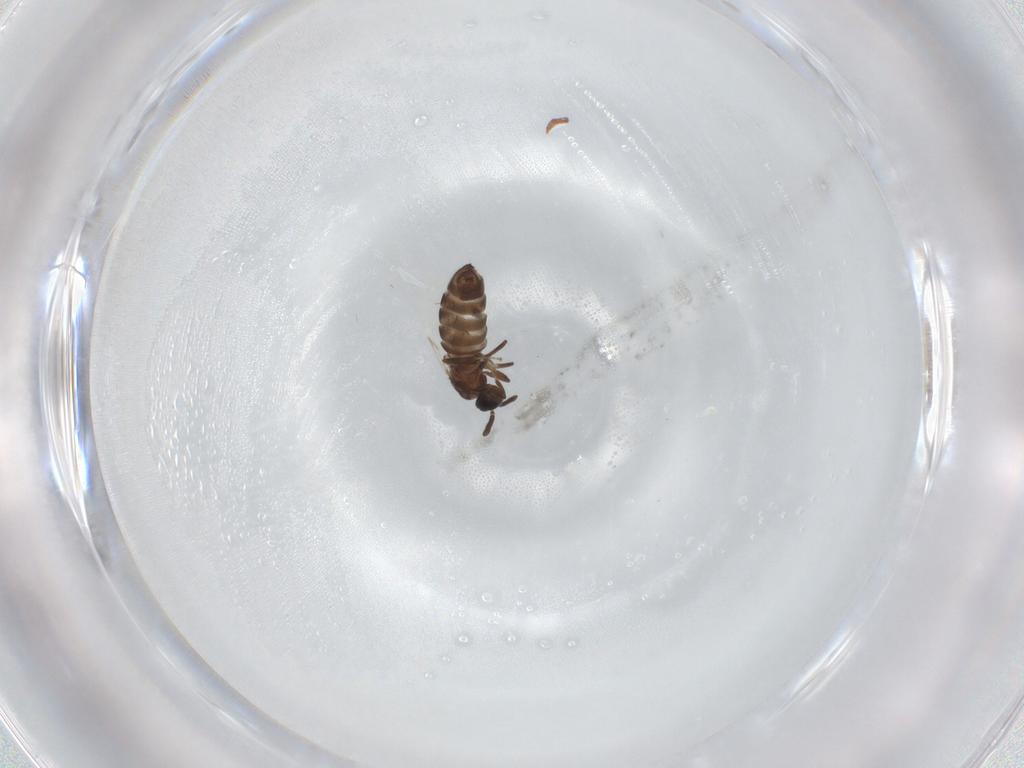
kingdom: Animalia
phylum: Arthropoda
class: Insecta
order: Diptera
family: Scatopsidae
